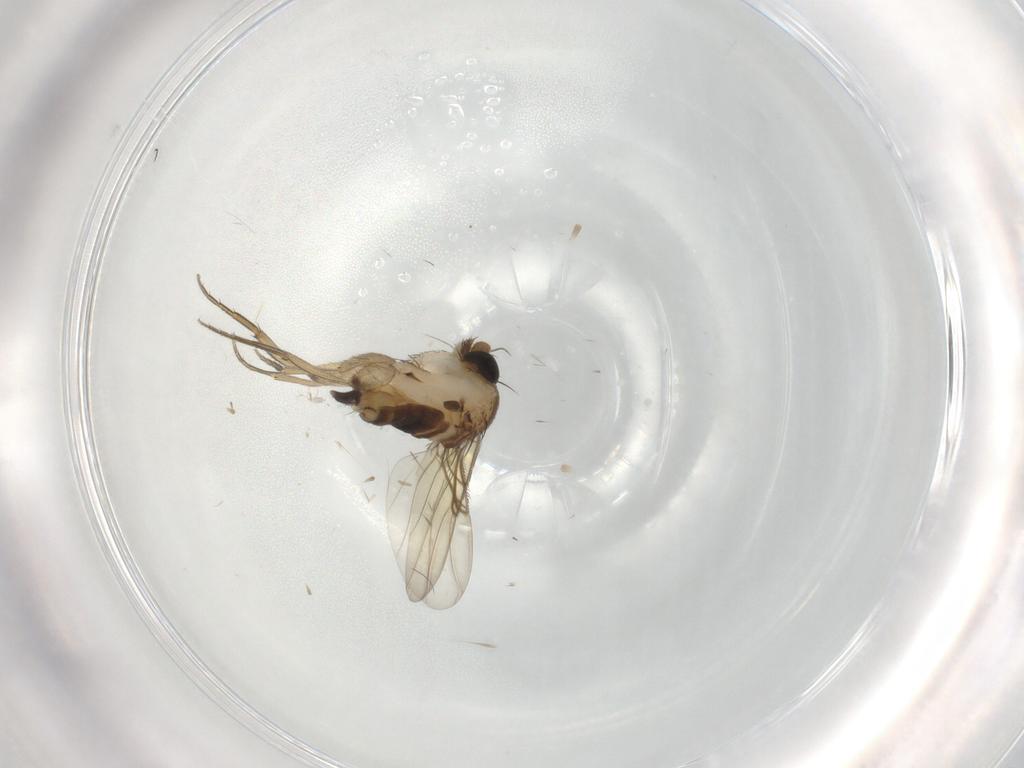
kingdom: Animalia
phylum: Arthropoda
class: Insecta
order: Diptera
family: Phoridae
